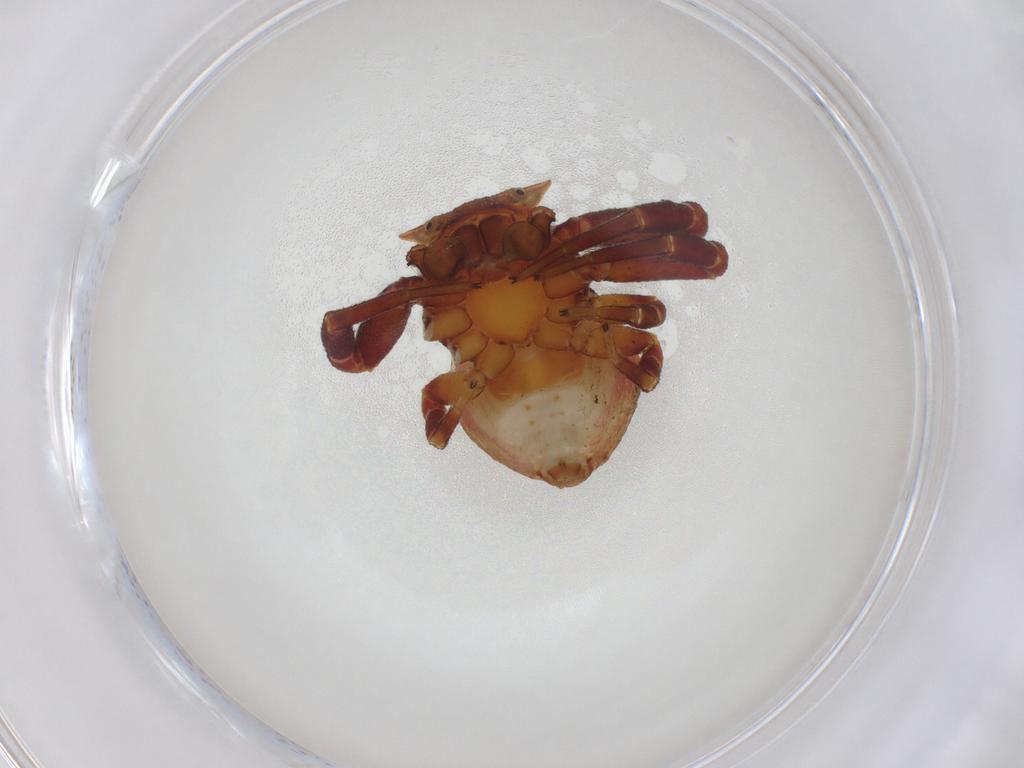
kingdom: Animalia
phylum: Arthropoda
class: Arachnida
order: Araneae
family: Thomisidae
